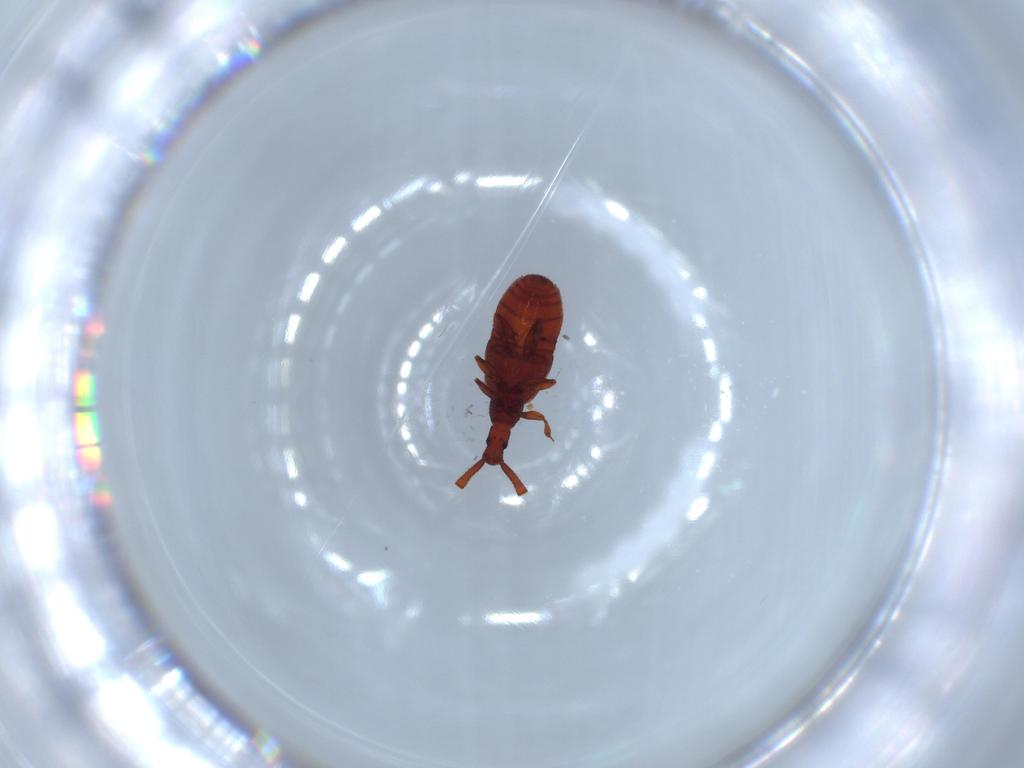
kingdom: Animalia
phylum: Arthropoda
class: Insecta
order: Coleoptera
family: Staphylinidae
